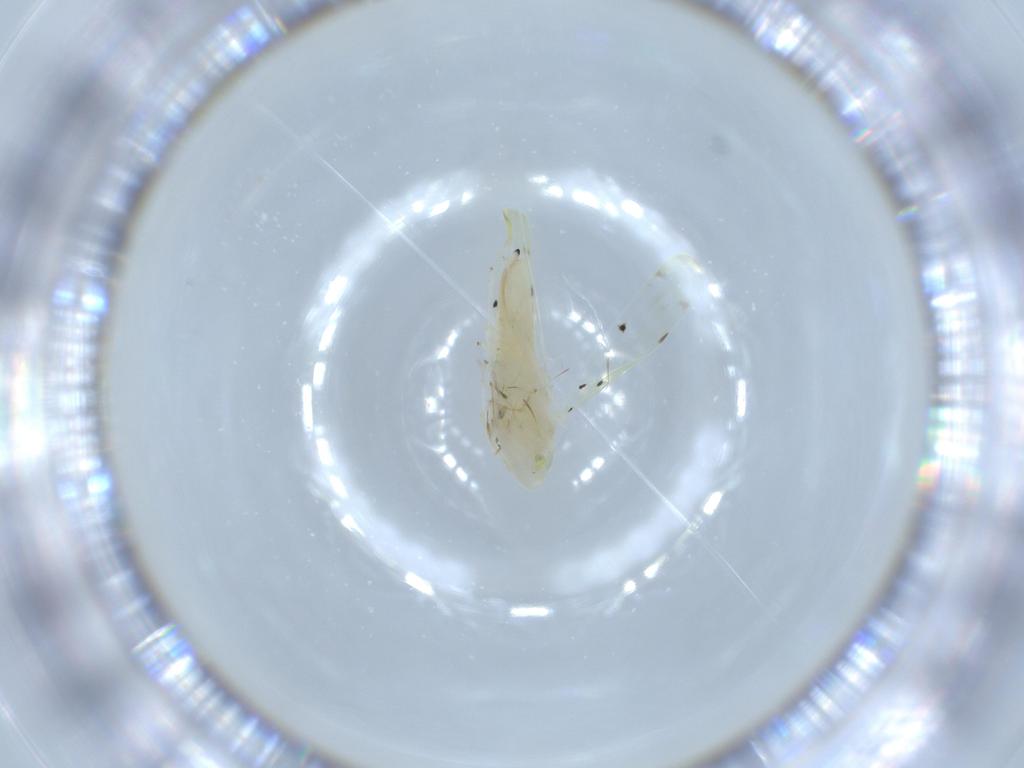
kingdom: Animalia
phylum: Arthropoda
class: Insecta
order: Hemiptera
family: Cicadellidae
